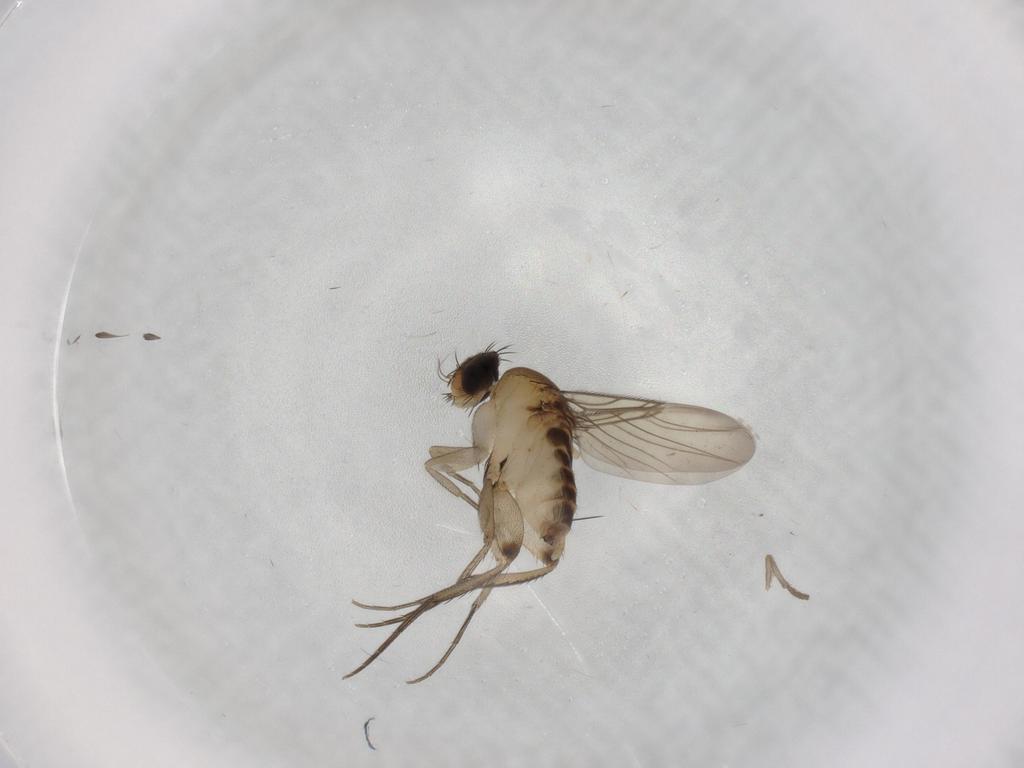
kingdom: Animalia
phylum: Arthropoda
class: Insecta
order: Diptera
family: Phoridae
